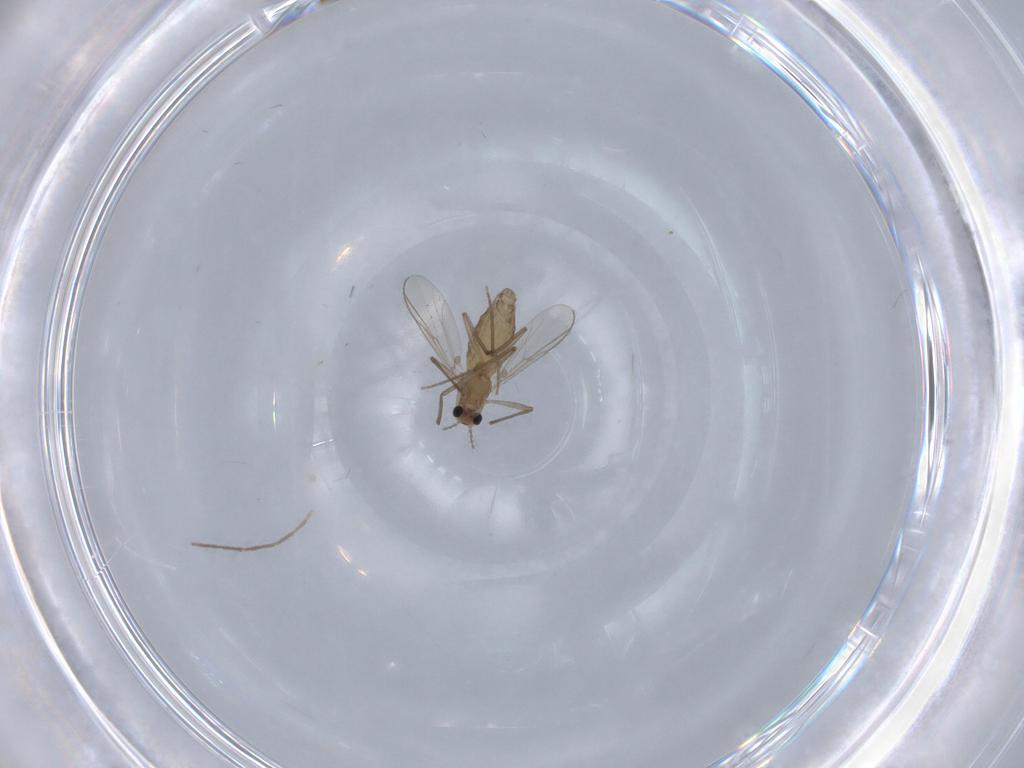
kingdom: Animalia
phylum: Arthropoda
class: Insecta
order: Diptera
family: Chironomidae
